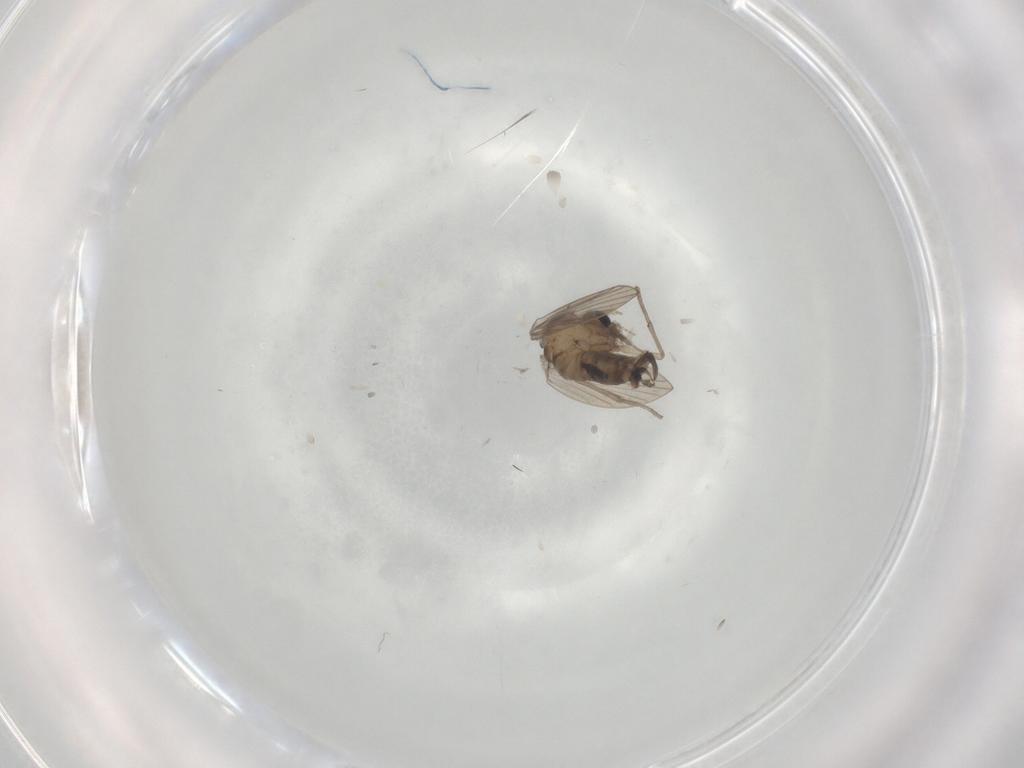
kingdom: Animalia
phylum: Arthropoda
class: Insecta
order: Diptera
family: Psychodidae
